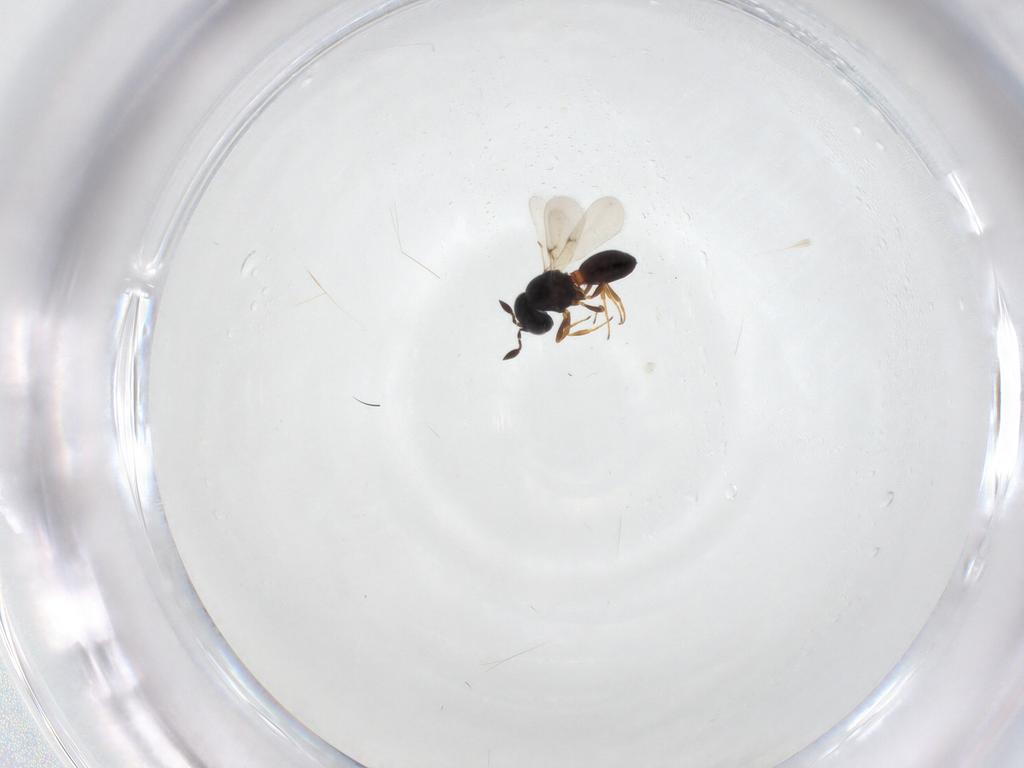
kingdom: Animalia
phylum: Arthropoda
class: Arachnida
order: Araneae
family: Pholcidae
